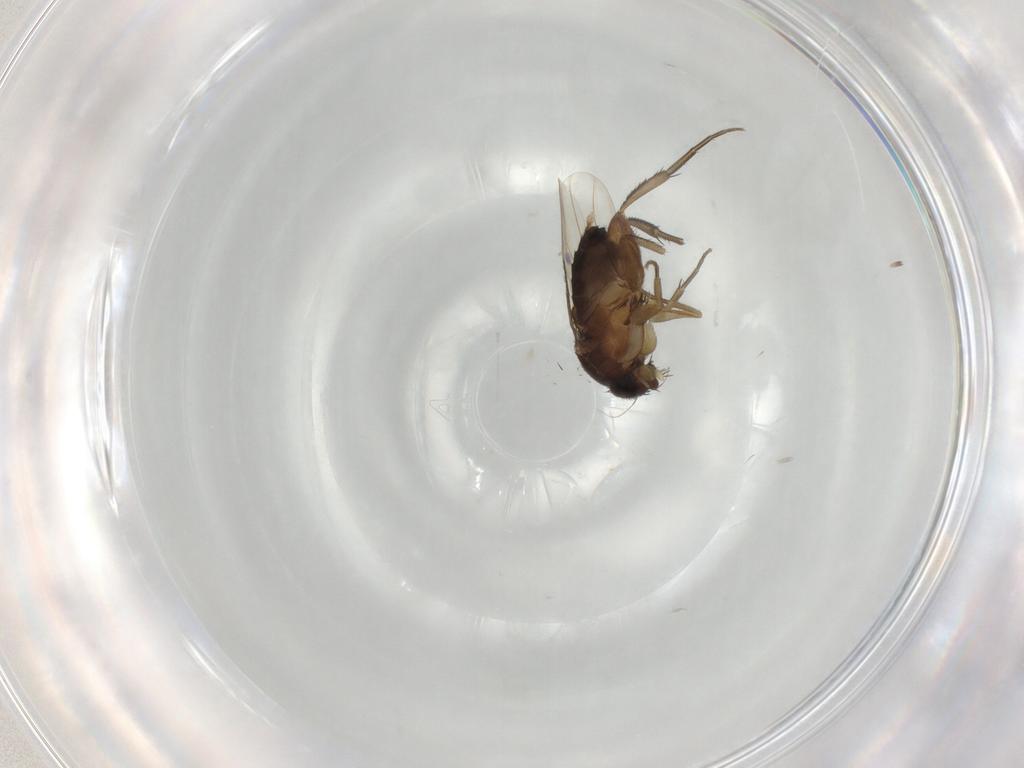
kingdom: Animalia
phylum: Arthropoda
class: Insecta
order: Diptera
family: Phoridae
